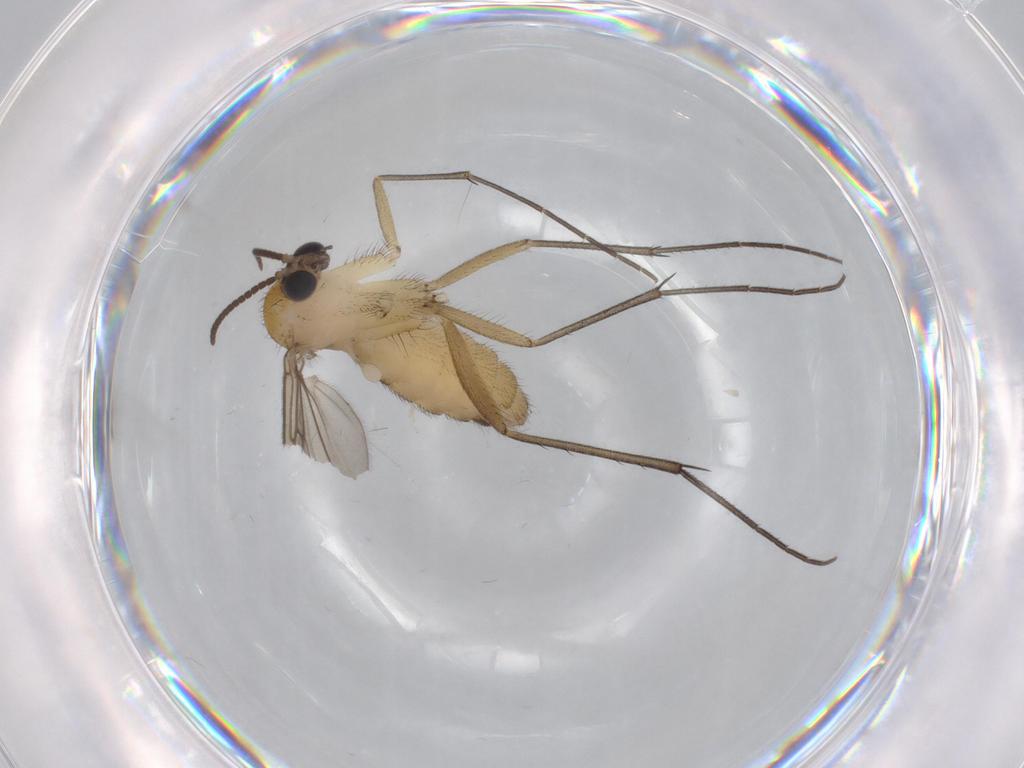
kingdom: Animalia
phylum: Arthropoda
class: Insecta
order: Diptera
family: Mycetophilidae
